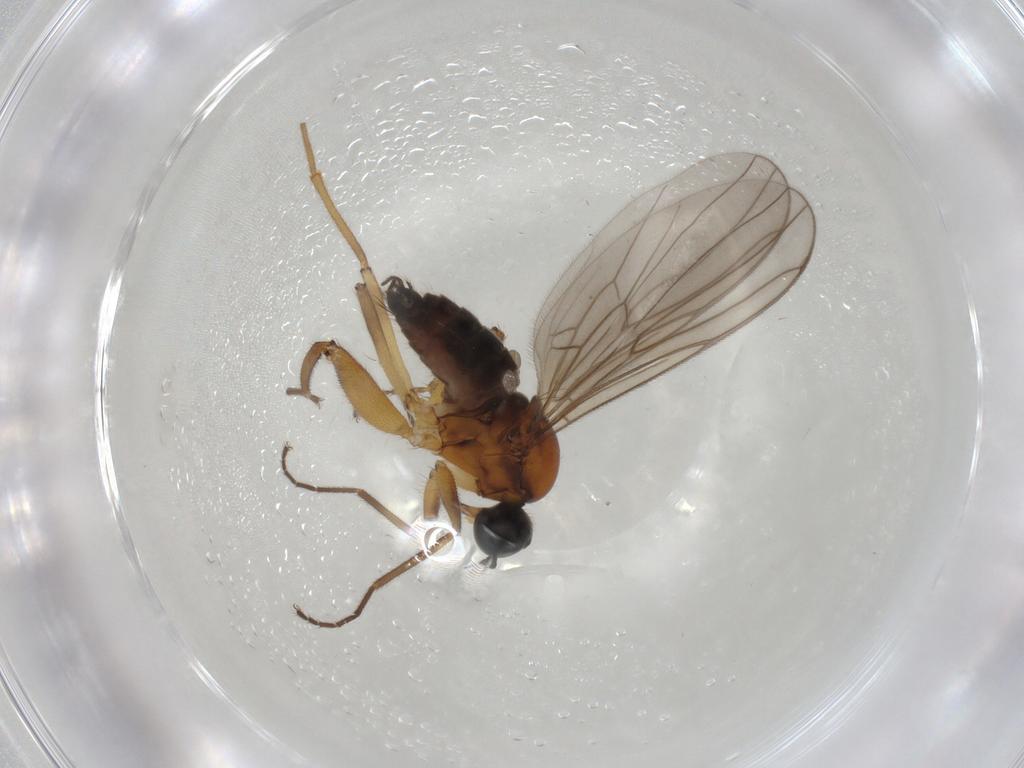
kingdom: Animalia
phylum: Arthropoda
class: Insecta
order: Diptera
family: Hybotidae
